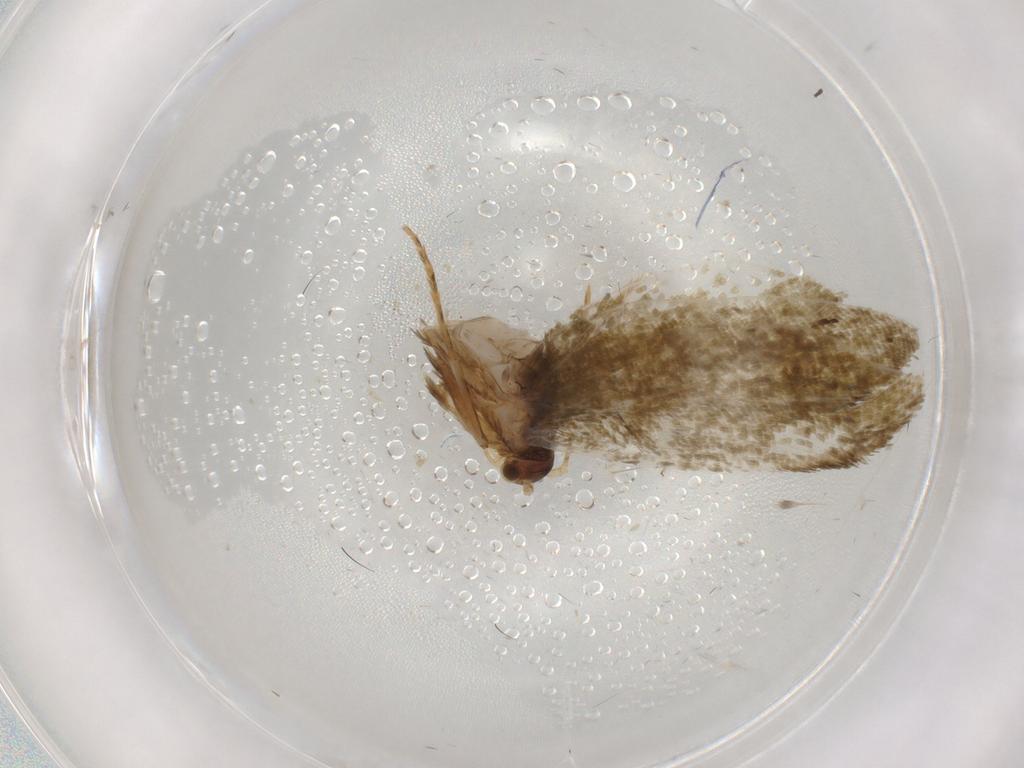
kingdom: Animalia
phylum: Arthropoda
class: Insecta
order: Lepidoptera
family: Tineidae
